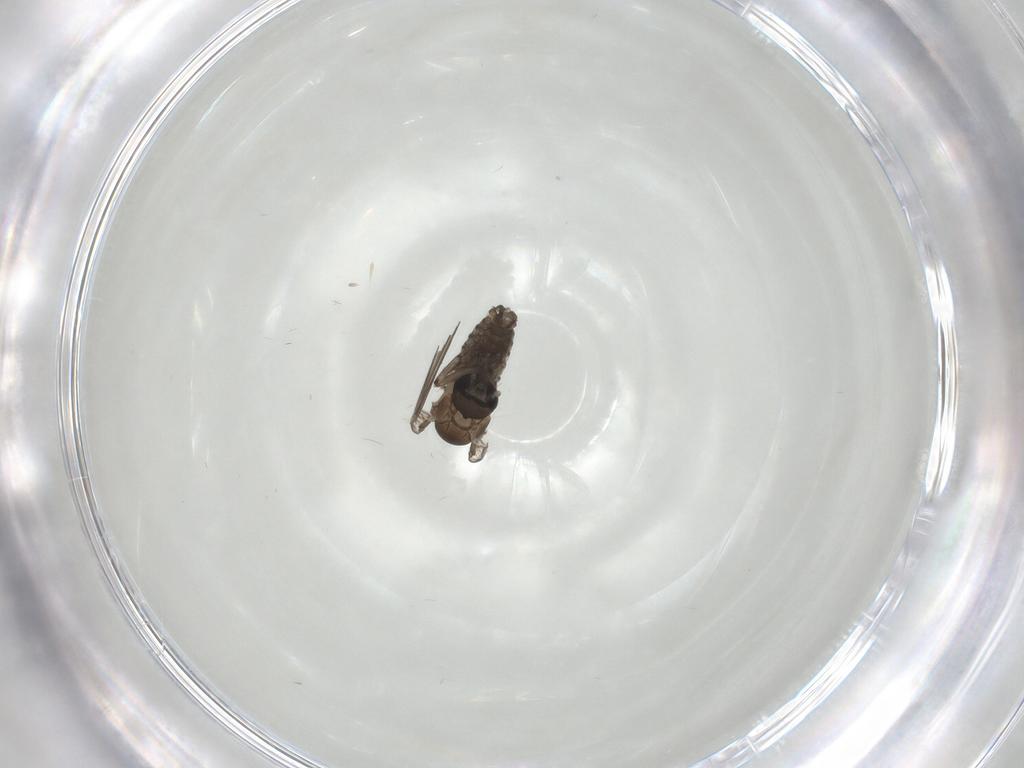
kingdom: Animalia
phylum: Arthropoda
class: Insecta
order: Diptera
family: Psychodidae
